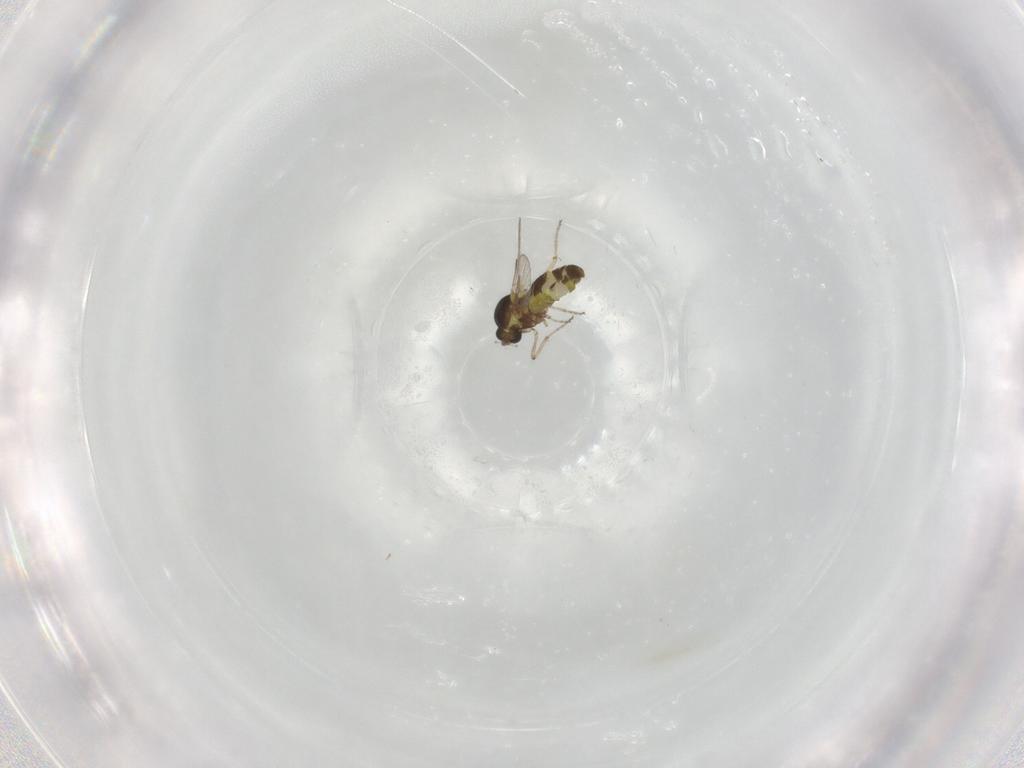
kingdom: Animalia
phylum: Arthropoda
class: Insecta
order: Diptera
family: Ceratopogonidae
